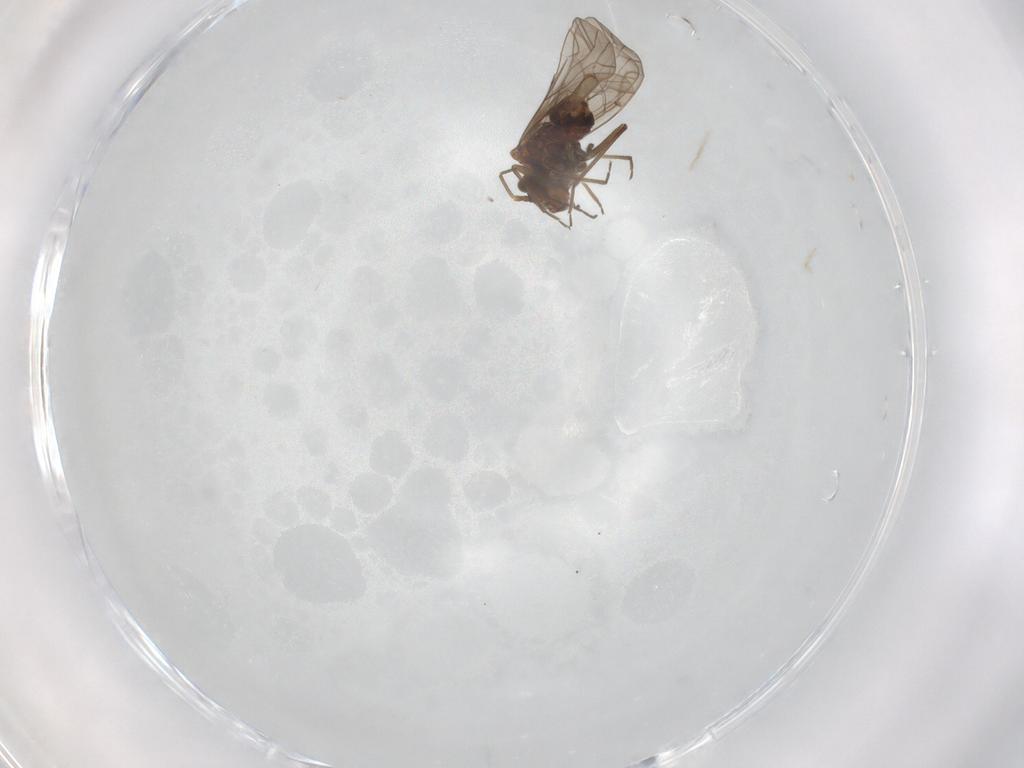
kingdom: Animalia
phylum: Arthropoda
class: Insecta
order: Psocodea
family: Lachesillidae
